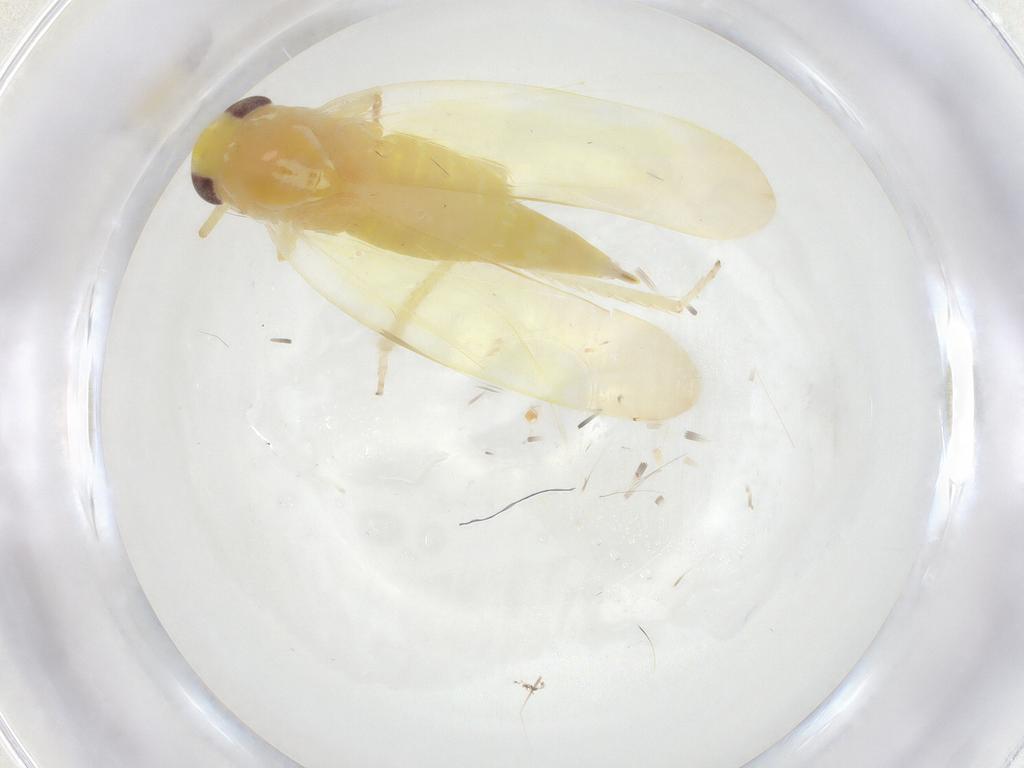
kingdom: Animalia
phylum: Arthropoda
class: Insecta
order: Hemiptera
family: Cicadellidae
